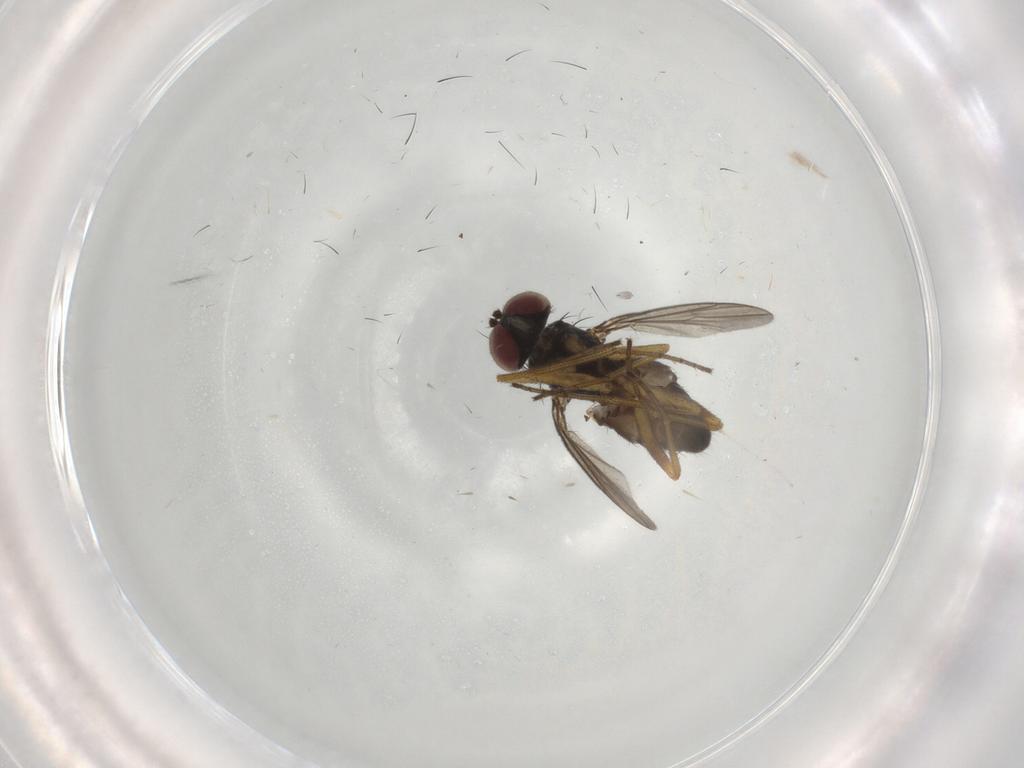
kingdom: Animalia
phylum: Arthropoda
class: Insecta
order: Diptera
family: Dolichopodidae
